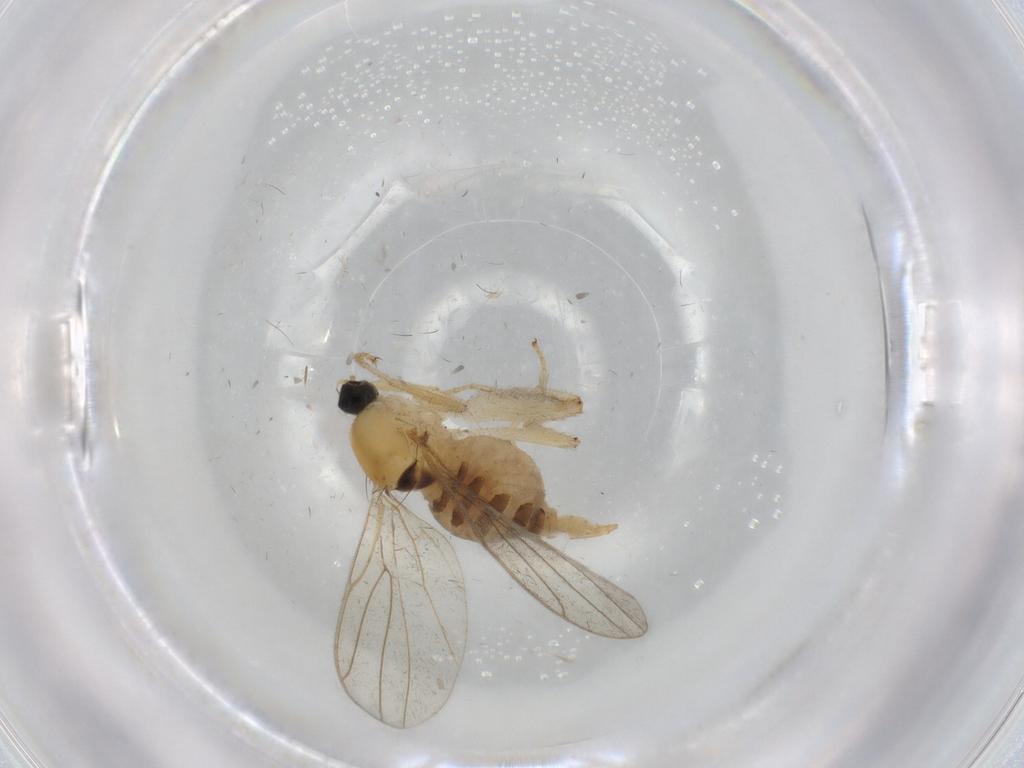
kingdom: Animalia
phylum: Arthropoda
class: Insecta
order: Diptera
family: Hybotidae
